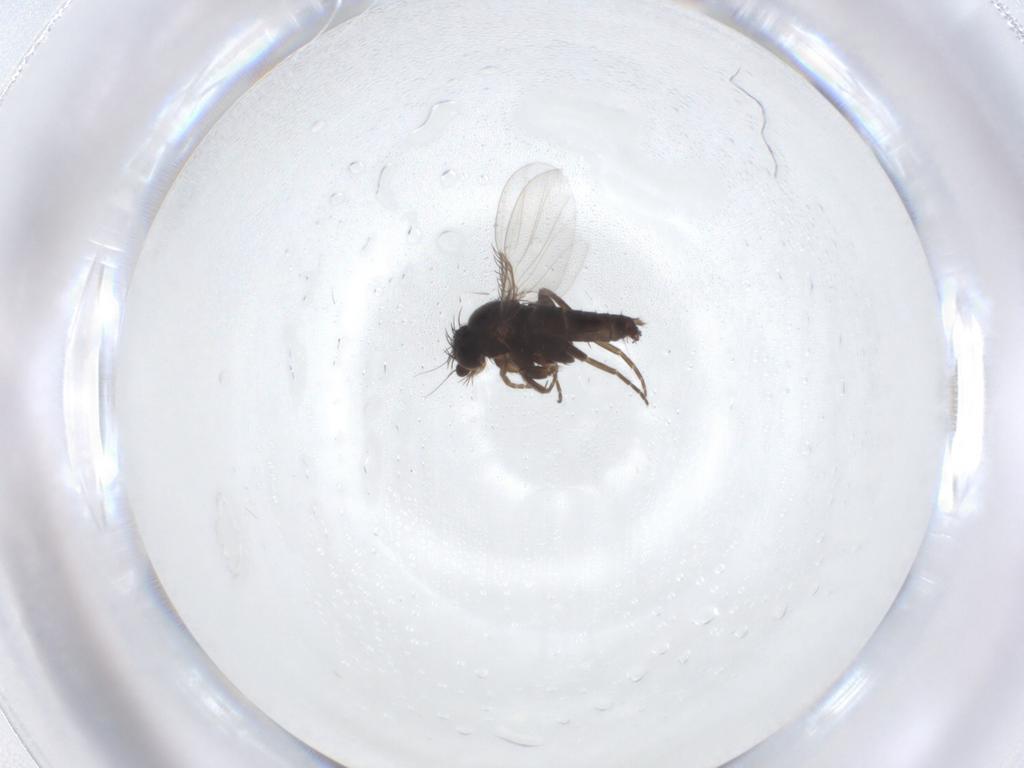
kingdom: Animalia
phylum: Arthropoda
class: Insecta
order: Diptera
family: Phoridae
